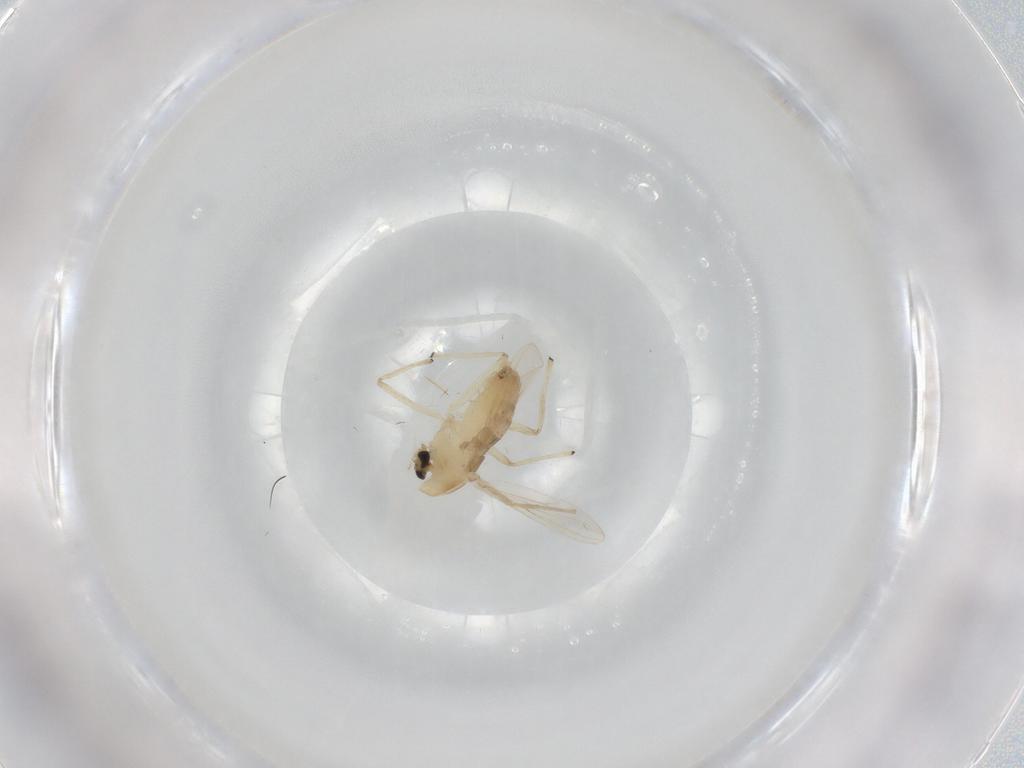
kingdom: Animalia
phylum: Arthropoda
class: Insecta
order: Diptera
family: Chironomidae
